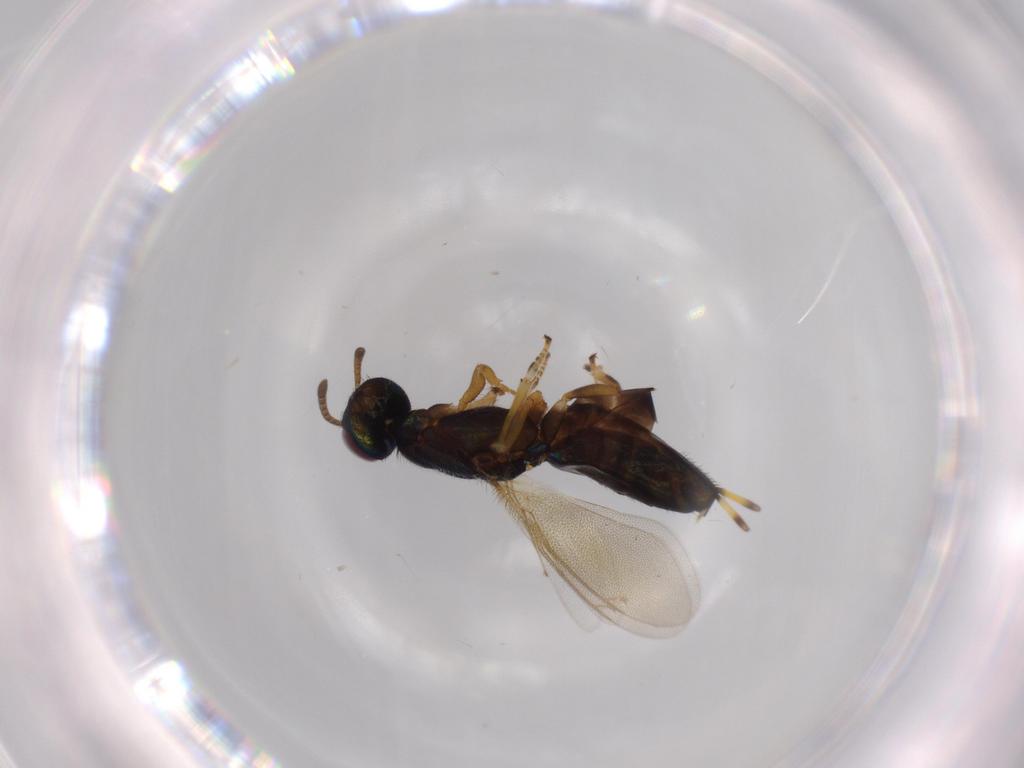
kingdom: Animalia
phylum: Arthropoda
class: Insecta
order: Hymenoptera
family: Eupelmidae
